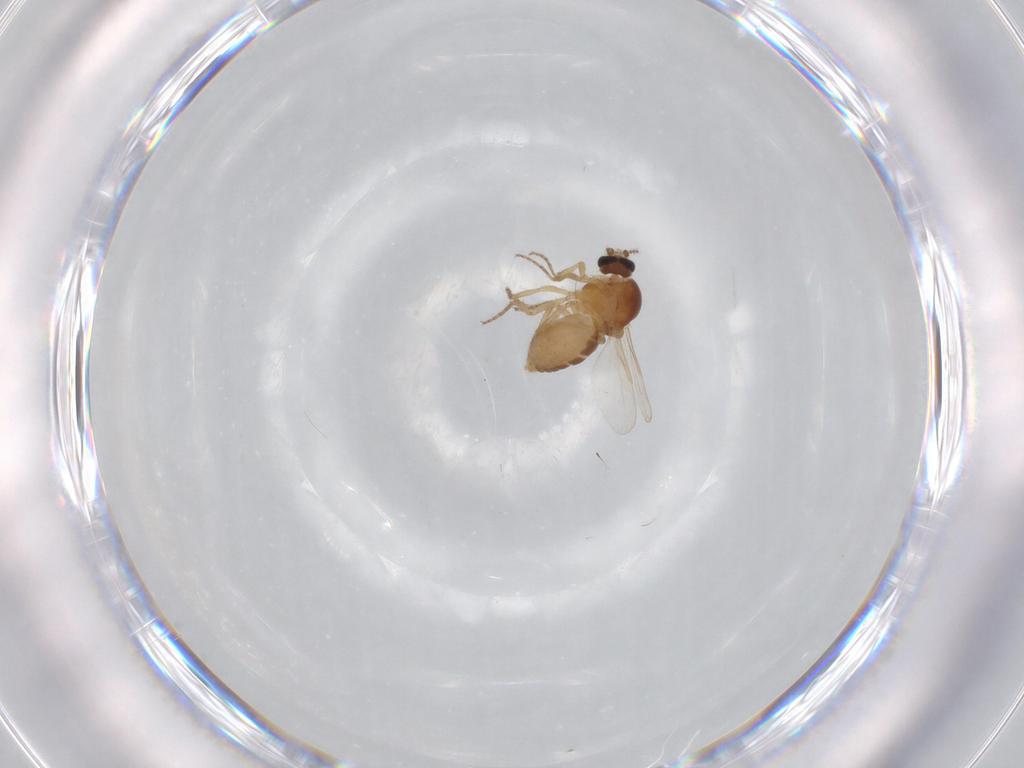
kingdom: Animalia
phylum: Arthropoda
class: Insecta
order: Diptera
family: Ceratopogonidae
